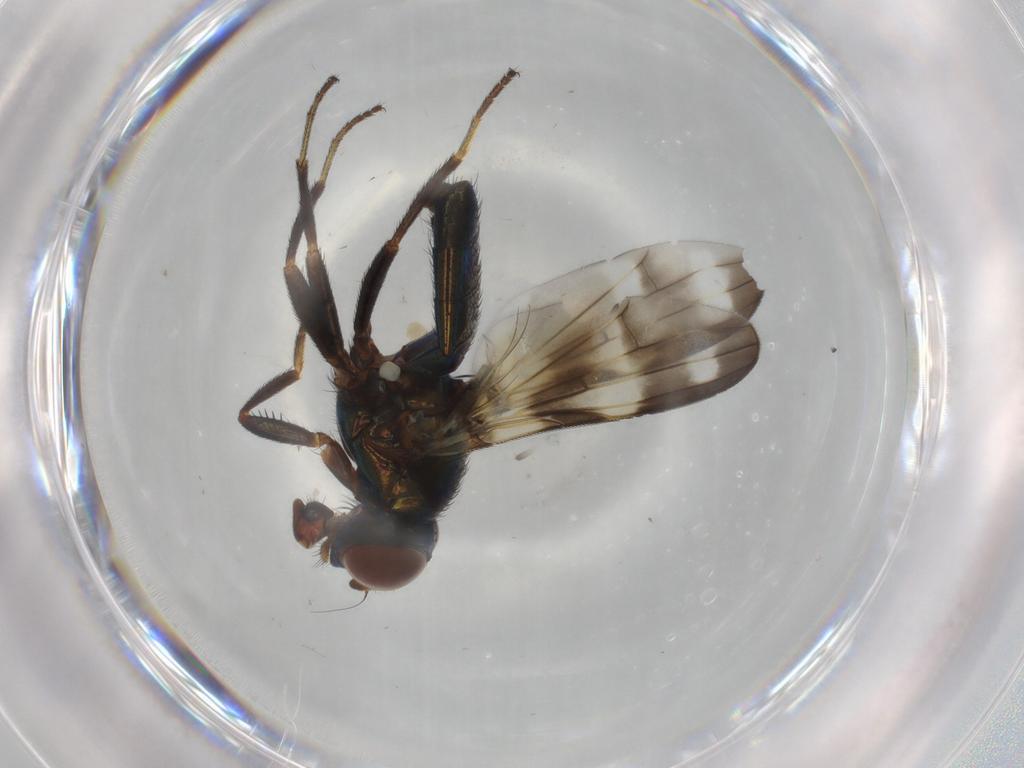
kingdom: Animalia
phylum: Arthropoda
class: Insecta
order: Diptera
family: Ulidiidae
